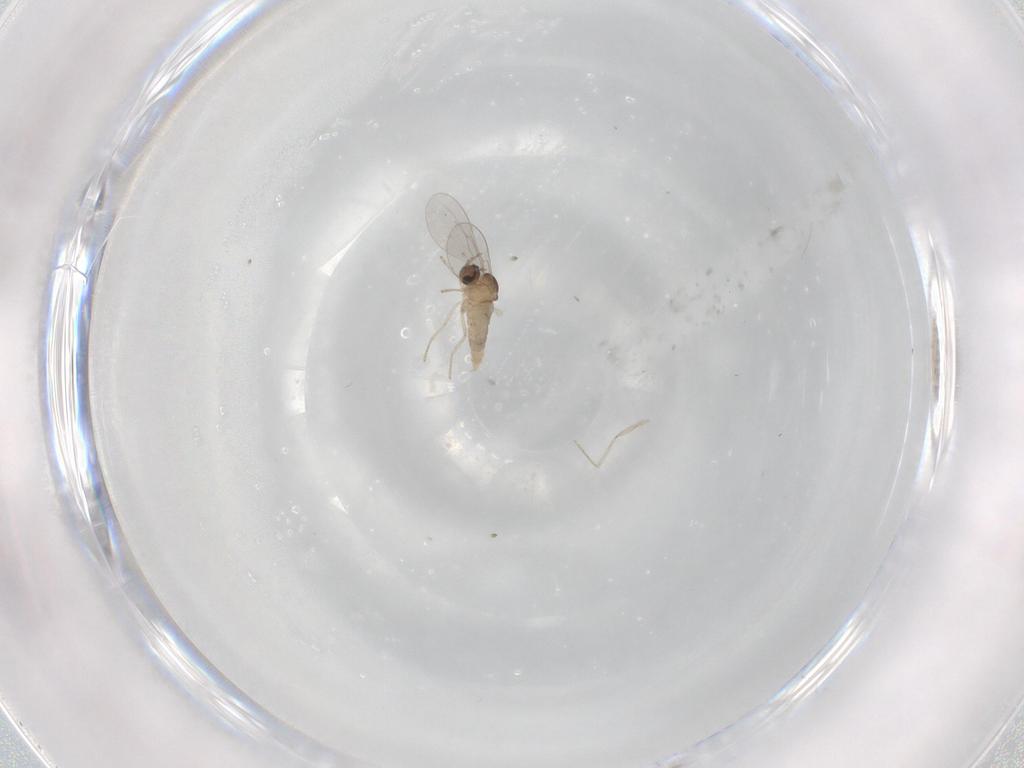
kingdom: Animalia
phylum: Arthropoda
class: Insecta
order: Diptera
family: Cecidomyiidae
